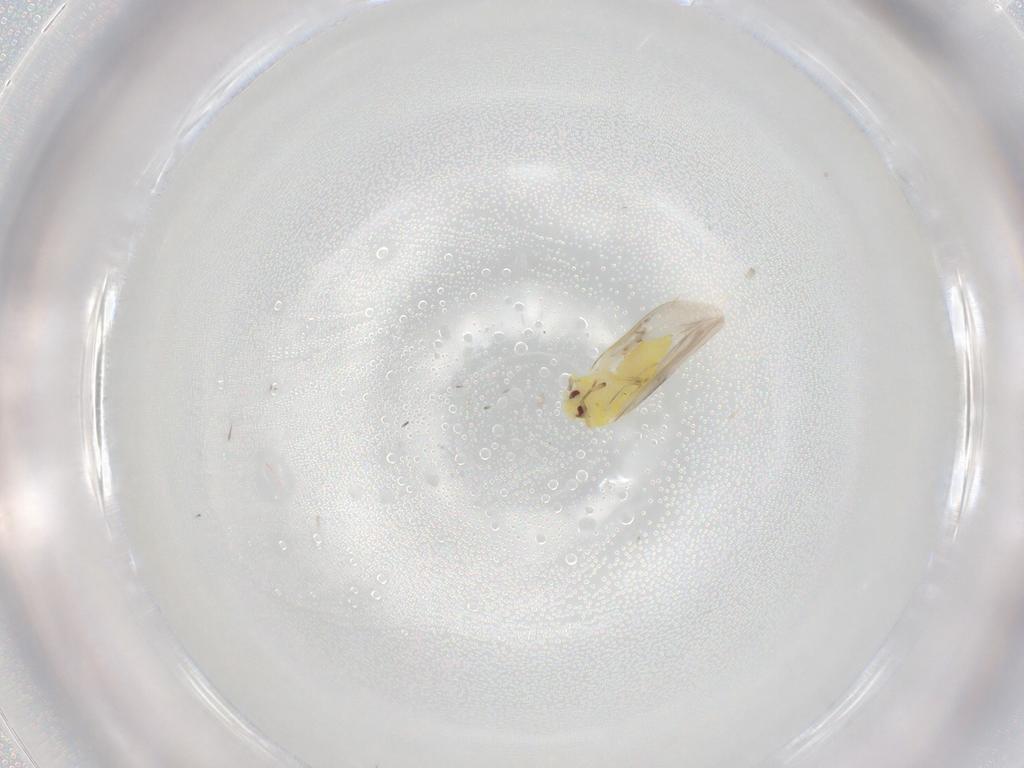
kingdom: Animalia
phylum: Arthropoda
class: Insecta
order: Hemiptera
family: Aleyrodidae
